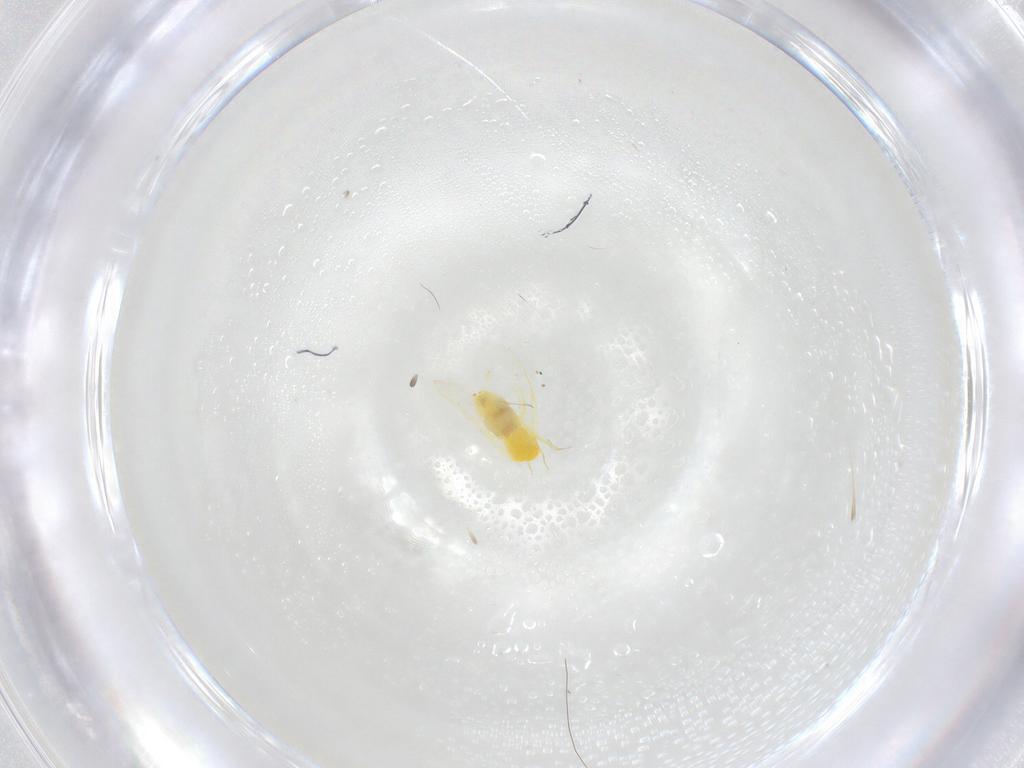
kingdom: Animalia
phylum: Arthropoda
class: Insecta
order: Hemiptera
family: Aleyrodidae
